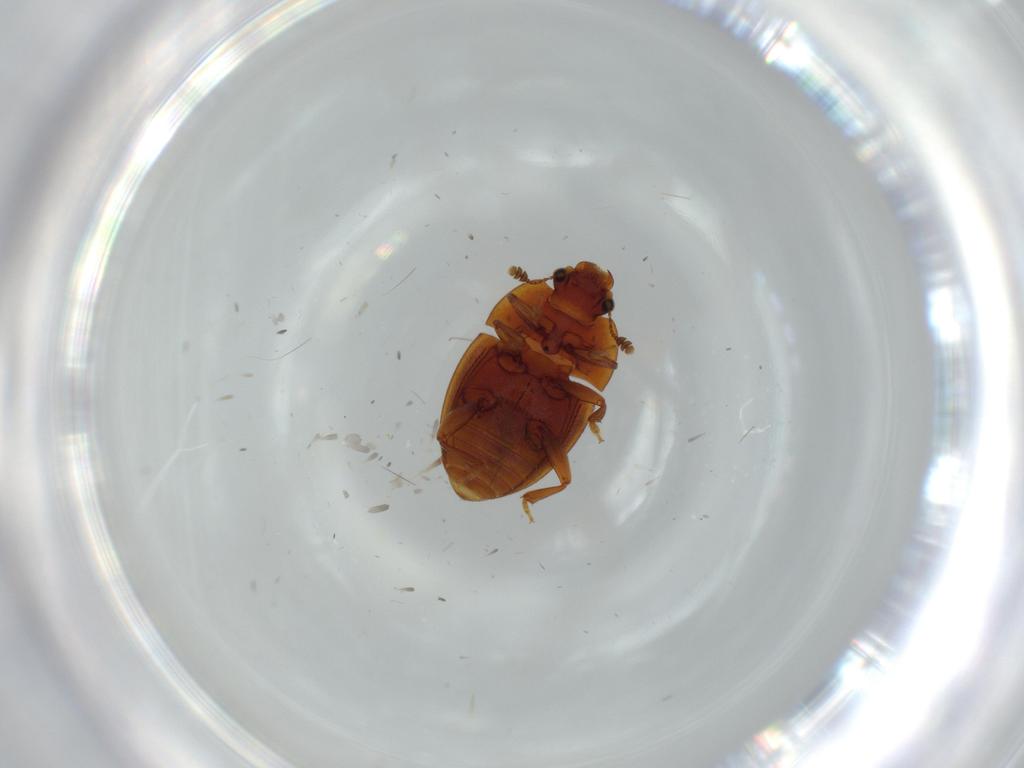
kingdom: Animalia
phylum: Arthropoda
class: Insecta
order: Coleoptera
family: Nitidulidae
